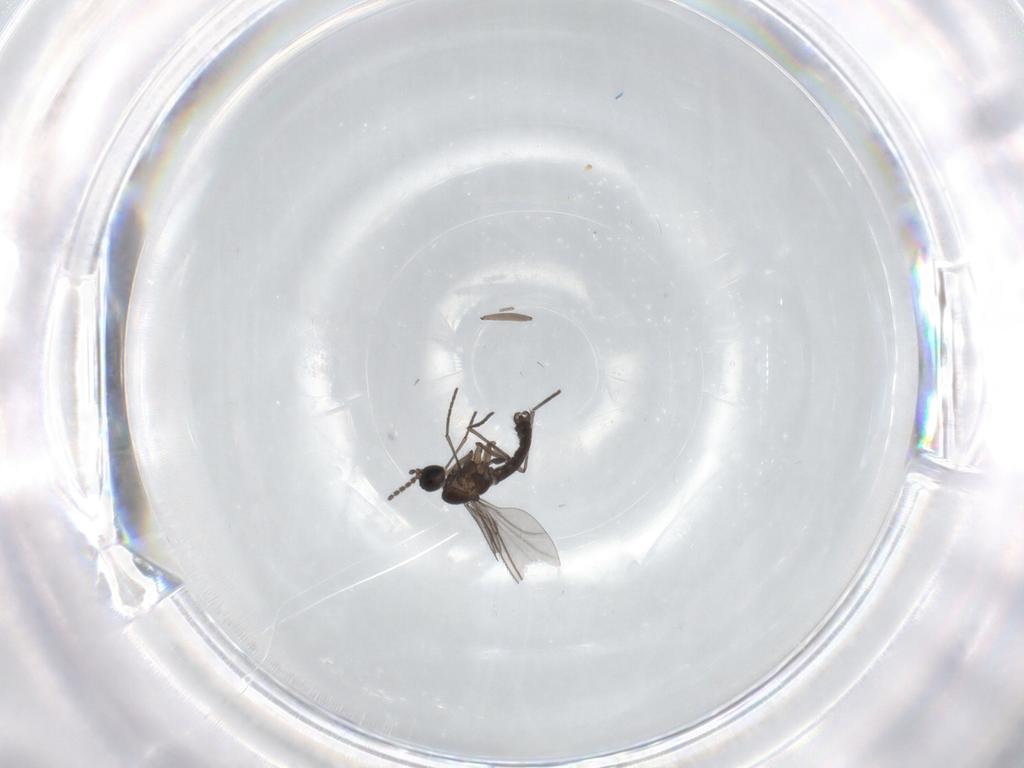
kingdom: Animalia
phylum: Arthropoda
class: Insecta
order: Diptera
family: Sciaridae
